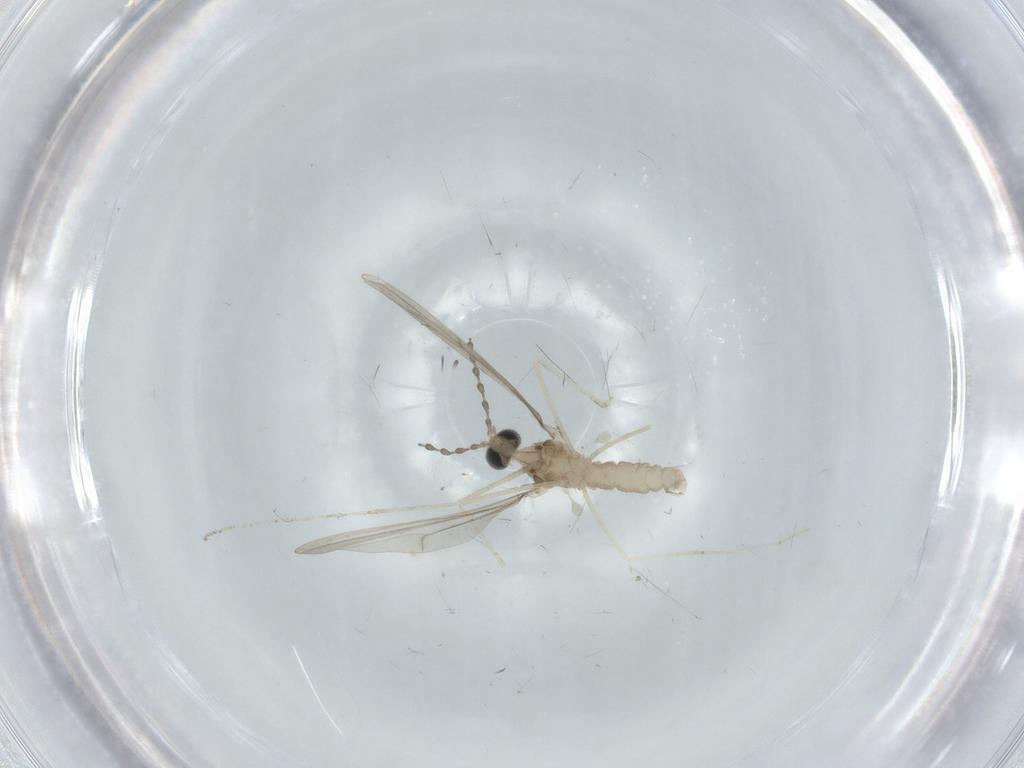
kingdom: Animalia
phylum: Arthropoda
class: Insecta
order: Diptera
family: Cecidomyiidae
